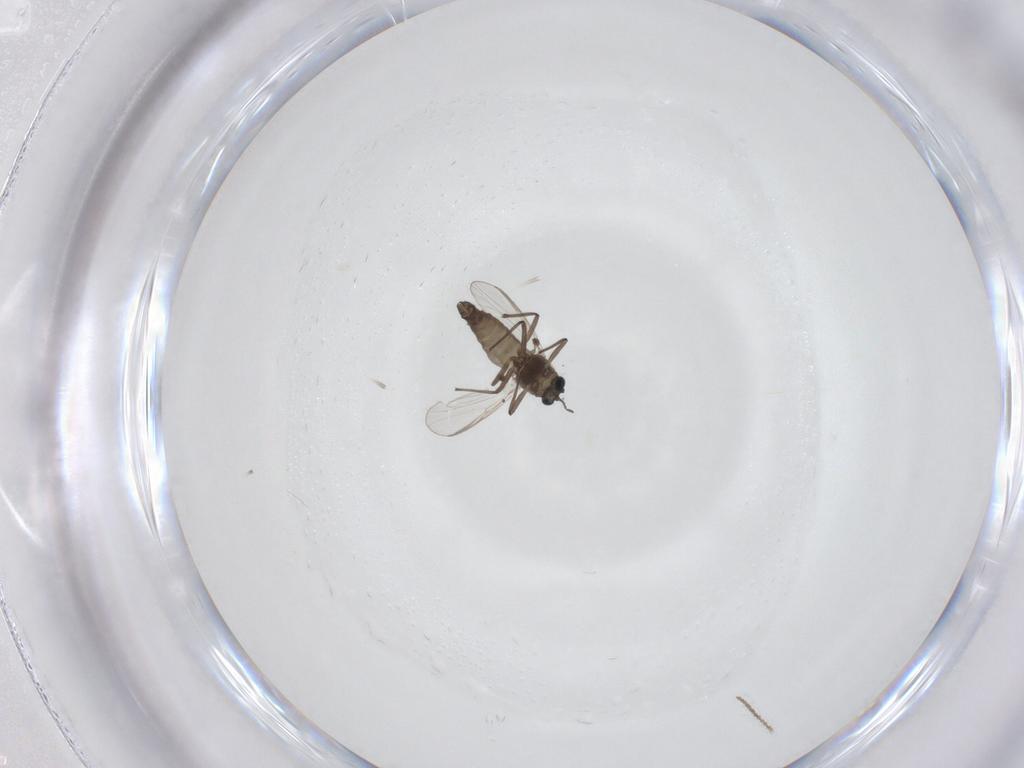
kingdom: Animalia
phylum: Arthropoda
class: Insecta
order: Diptera
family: Chironomidae
